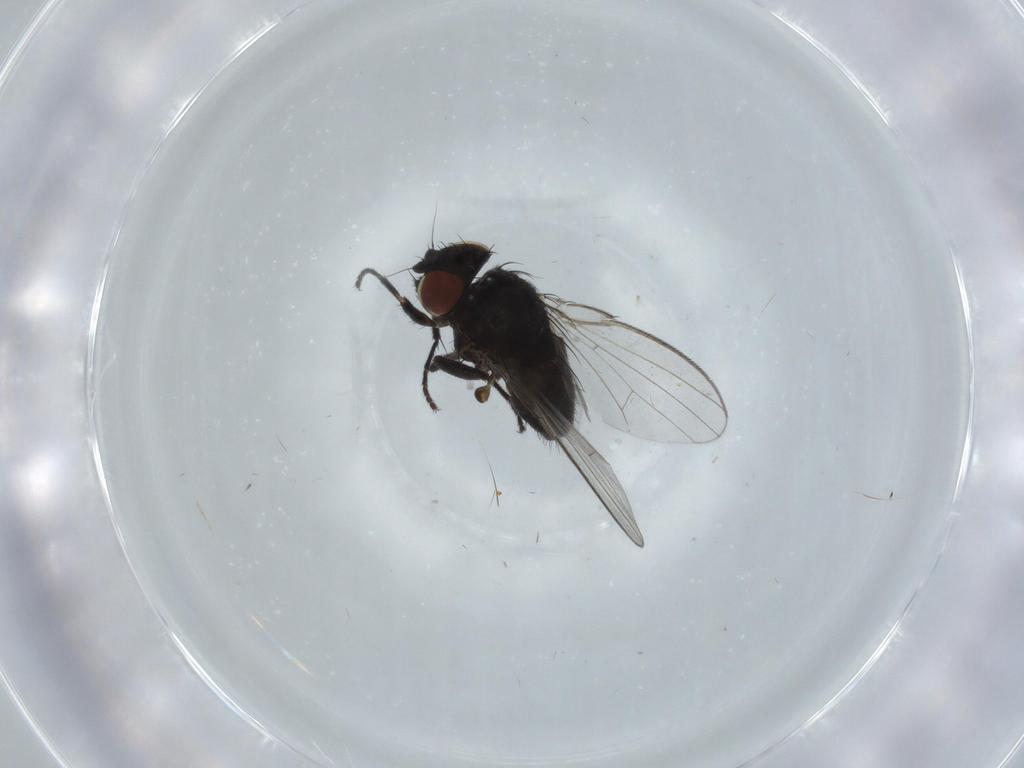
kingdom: Animalia
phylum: Arthropoda
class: Insecta
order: Diptera
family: Milichiidae
